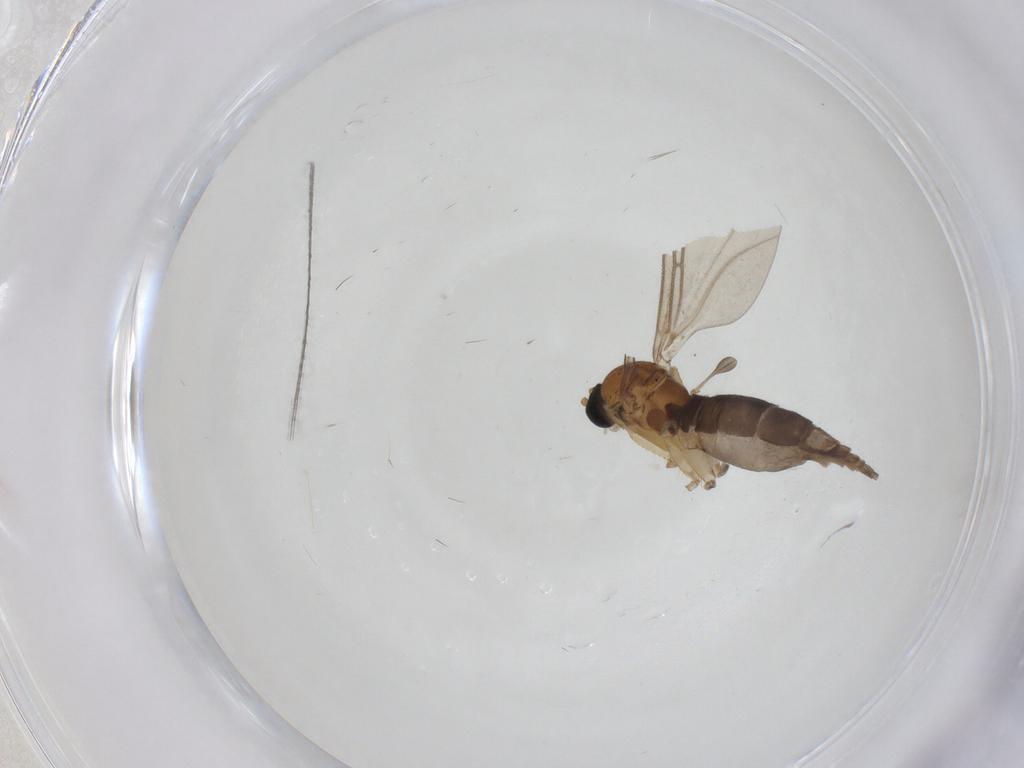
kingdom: Animalia
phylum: Arthropoda
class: Insecta
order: Diptera
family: Sciaridae
